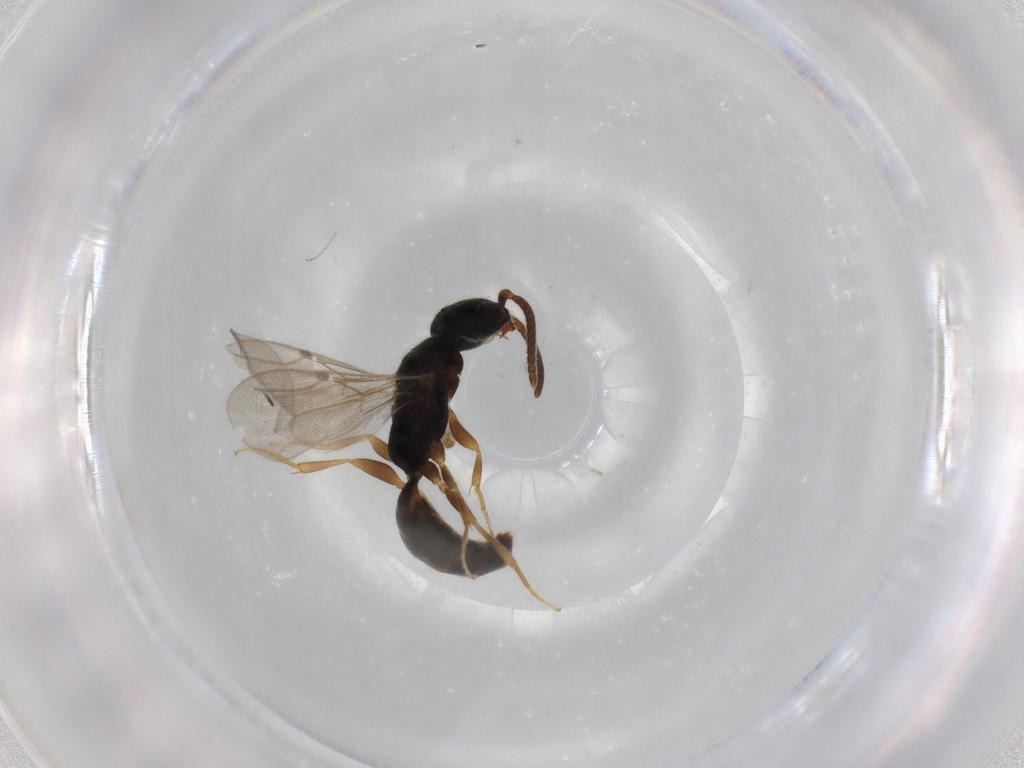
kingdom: Animalia
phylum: Arthropoda
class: Insecta
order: Hymenoptera
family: Bethylidae
